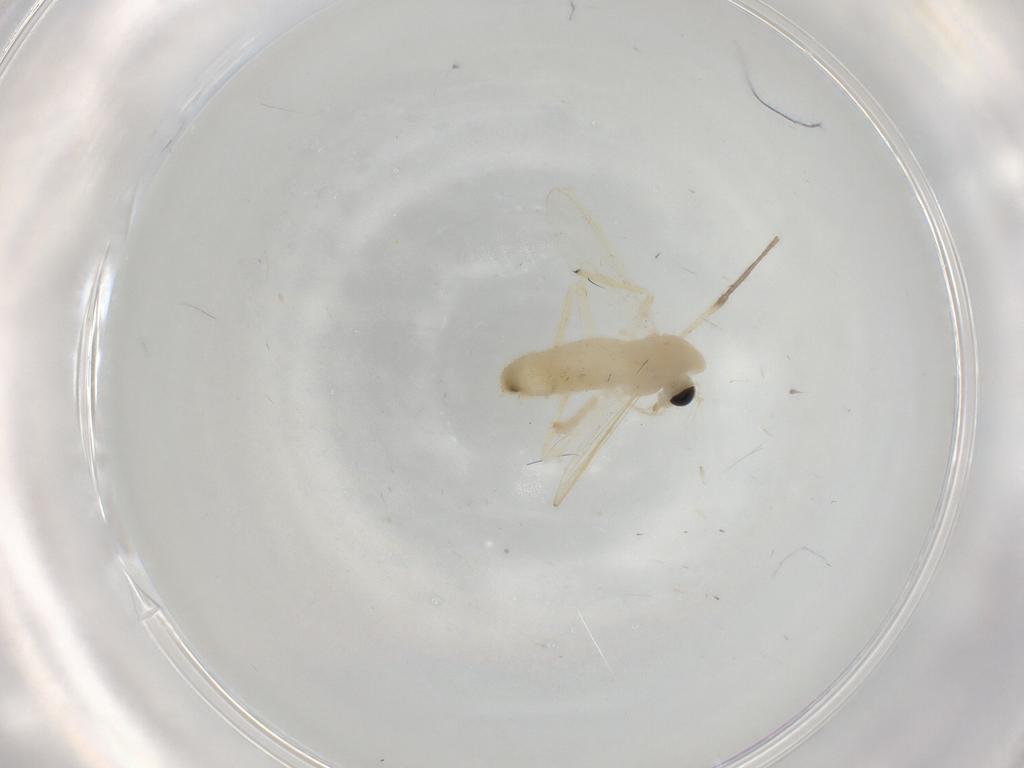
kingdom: Animalia
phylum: Arthropoda
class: Insecta
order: Diptera
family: Chironomidae
